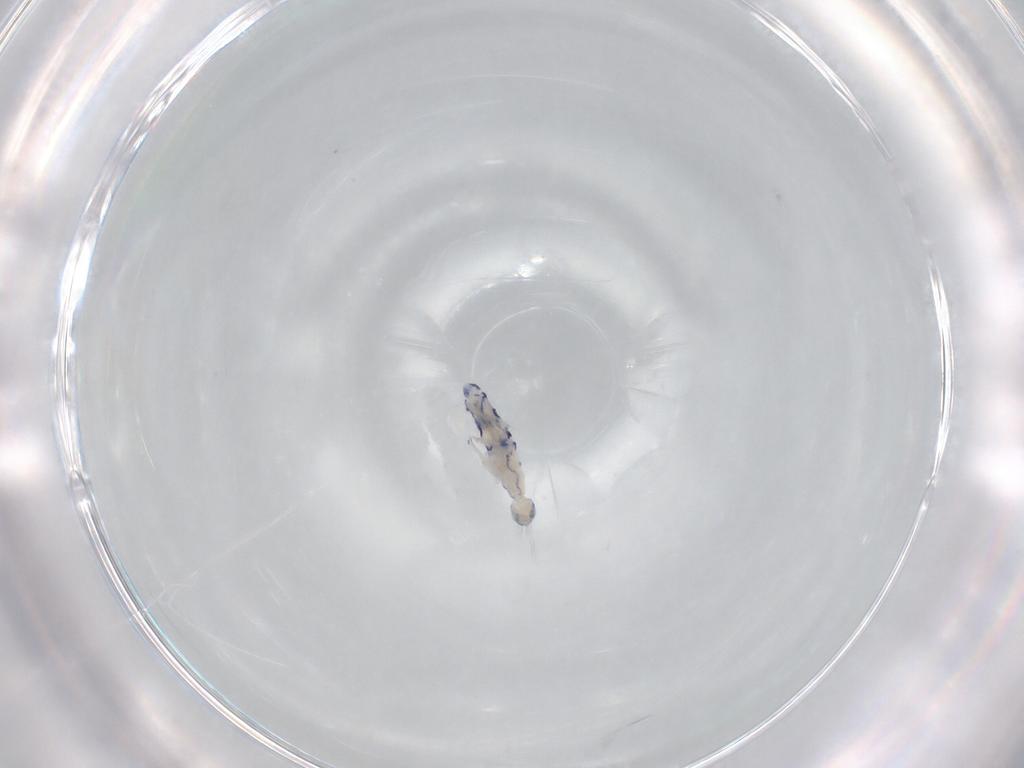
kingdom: Animalia
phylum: Arthropoda
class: Collembola
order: Entomobryomorpha
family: Entomobryidae
